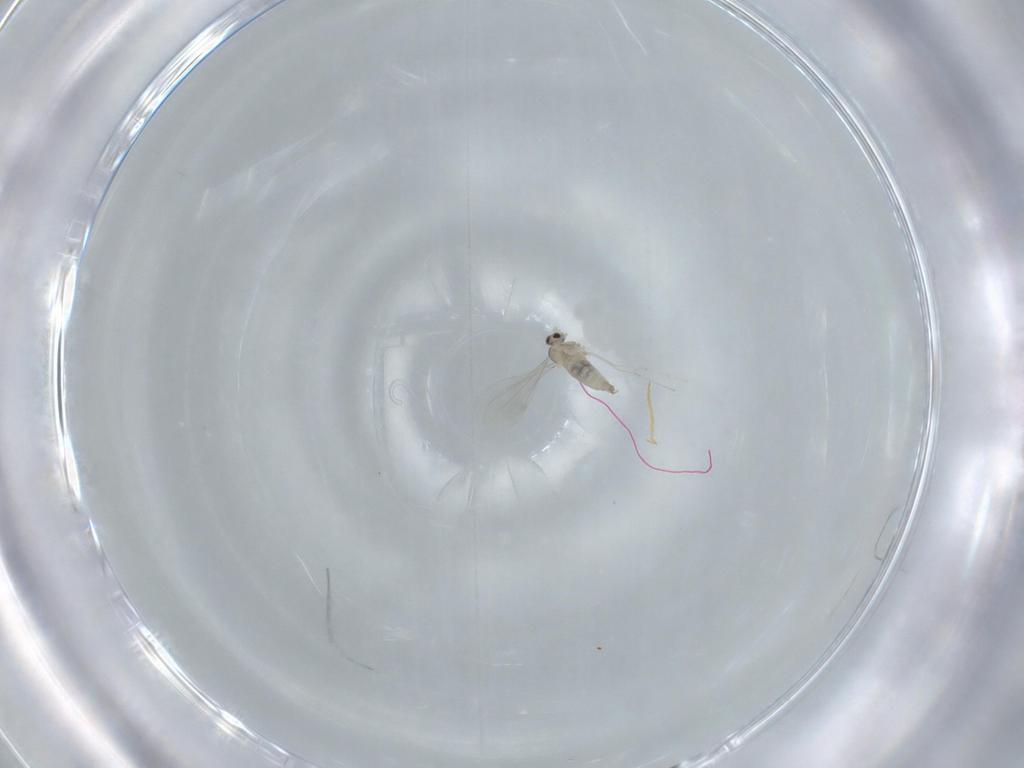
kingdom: Animalia
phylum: Arthropoda
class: Insecta
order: Diptera
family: Cecidomyiidae
